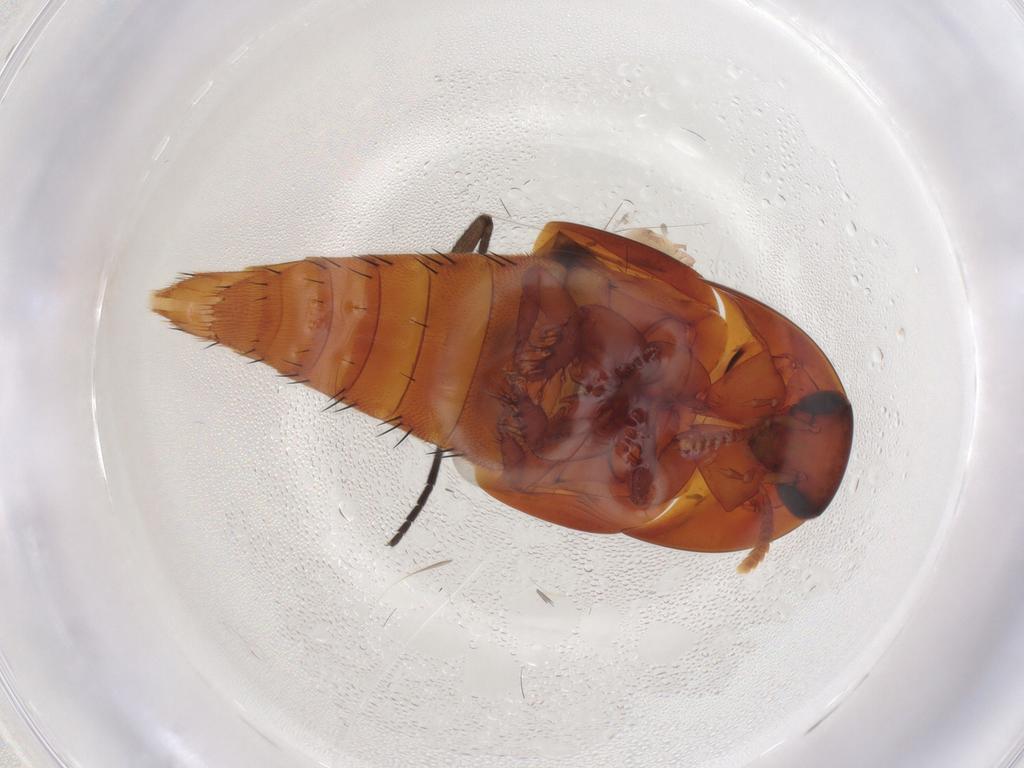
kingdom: Animalia
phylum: Arthropoda
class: Insecta
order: Coleoptera
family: Staphylinidae
